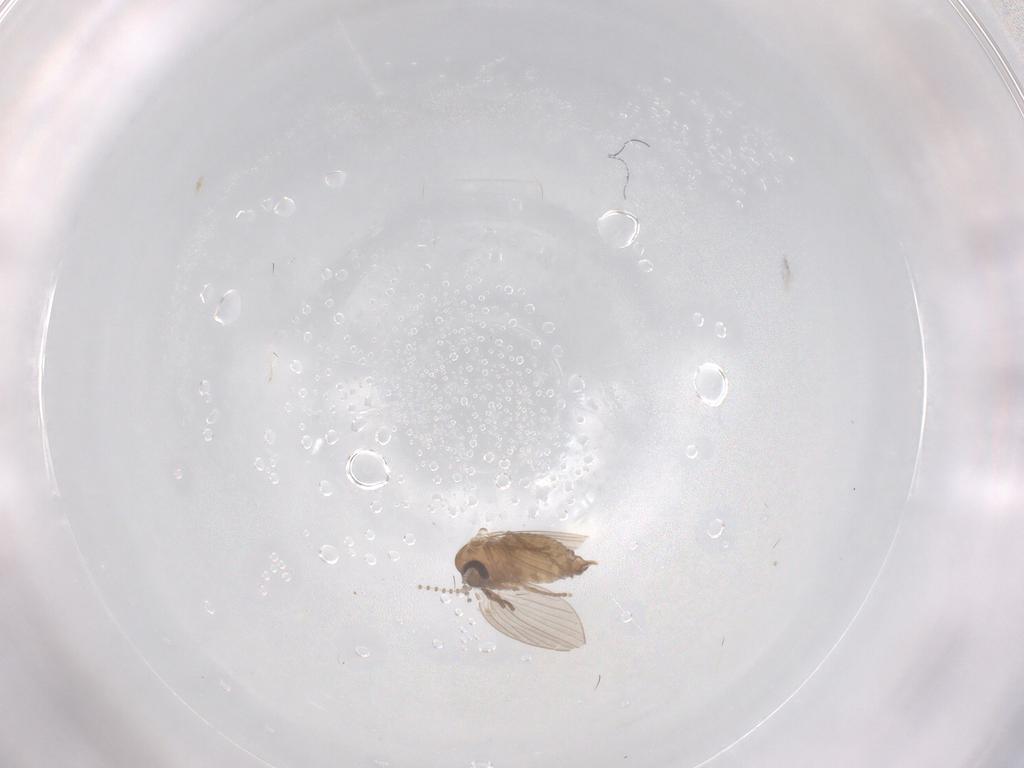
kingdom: Animalia
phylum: Arthropoda
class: Insecta
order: Diptera
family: Psychodidae
